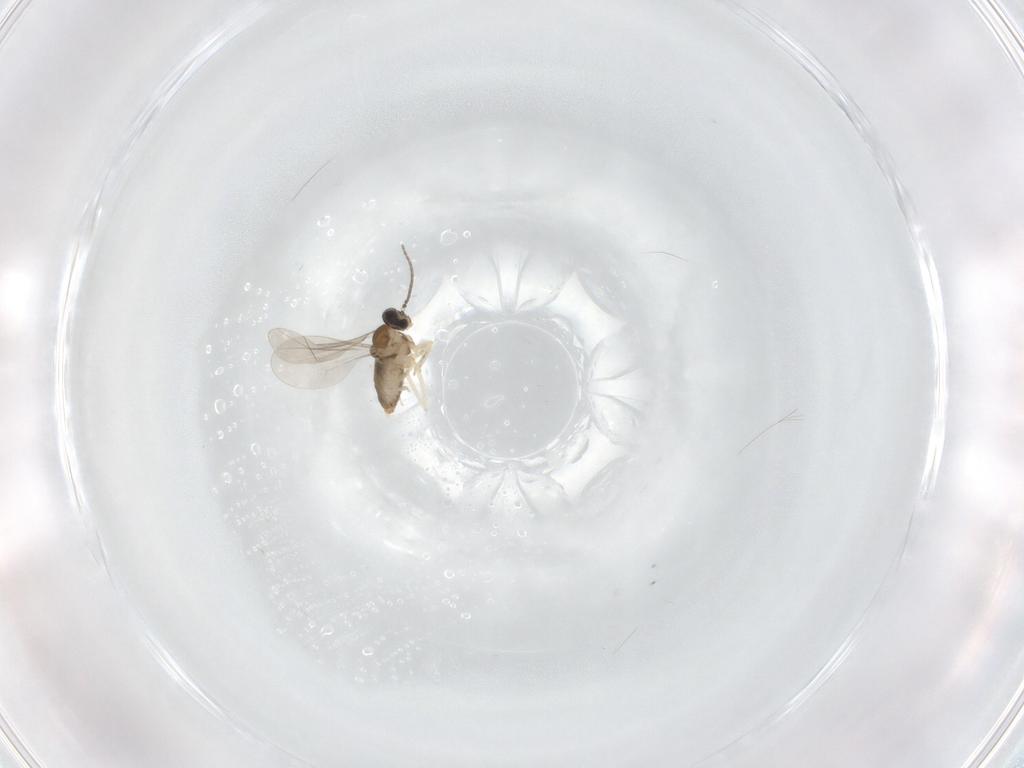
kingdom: Animalia
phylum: Arthropoda
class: Insecta
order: Diptera
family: Cecidomyiidae
